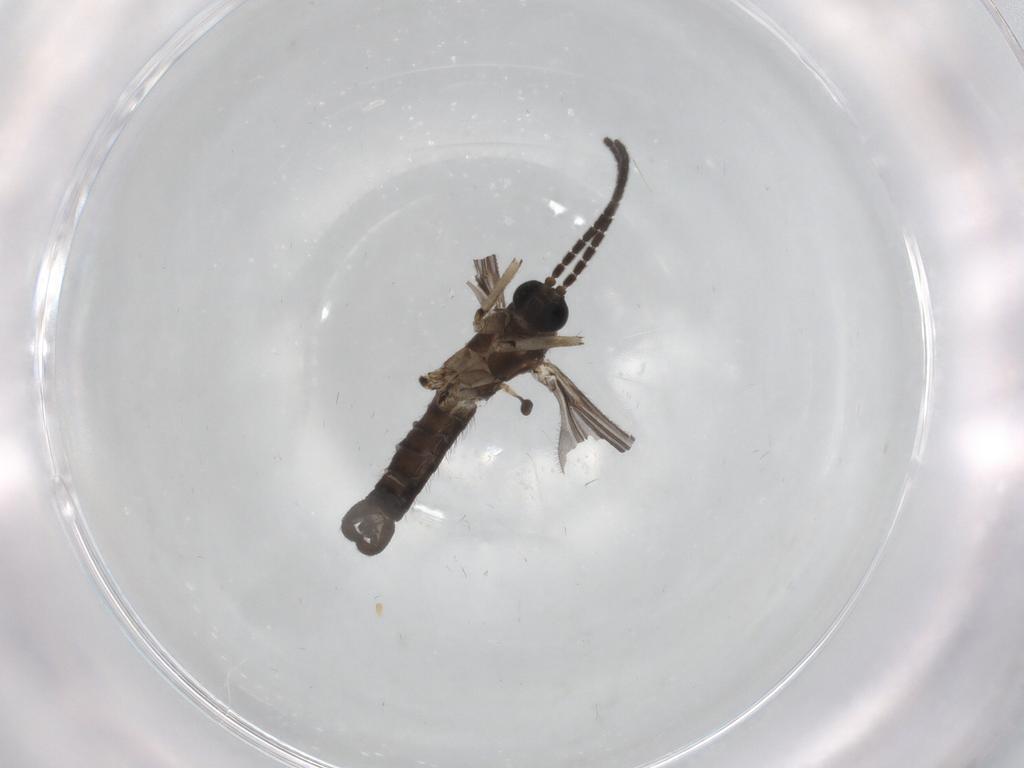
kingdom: Animalia
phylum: Arthropoda
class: Insecta
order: Diptera
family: Sciaridae
